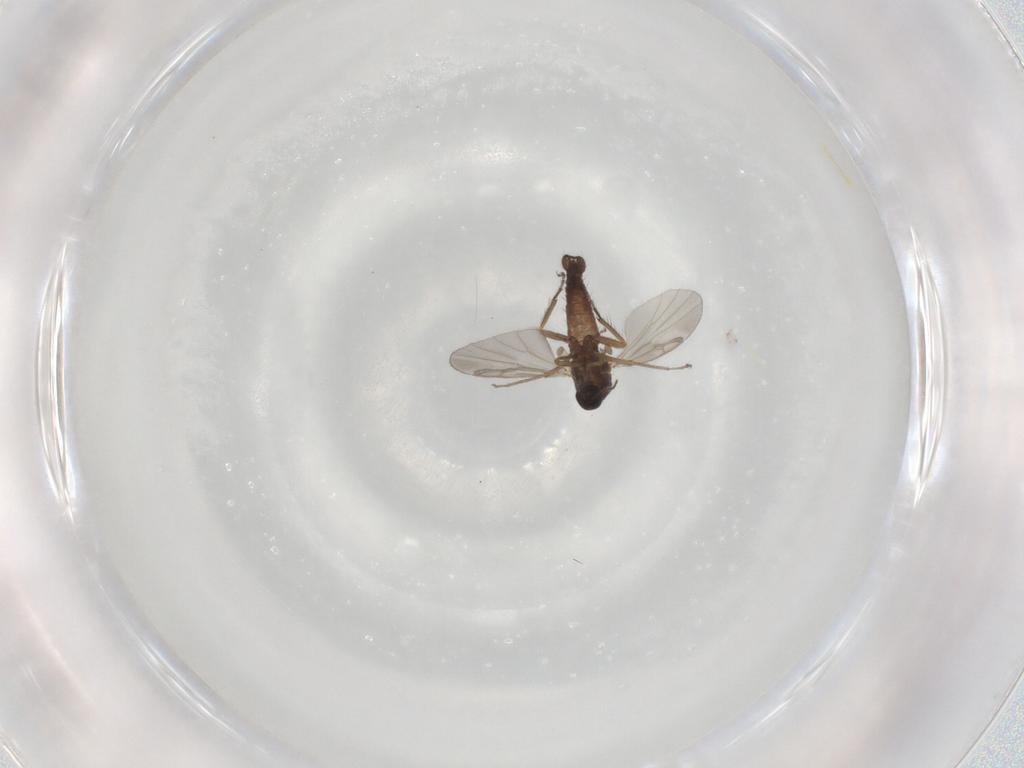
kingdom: Animalia
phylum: Arthropoda
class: Insecta
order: Diptera
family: Ceratopogonidae
